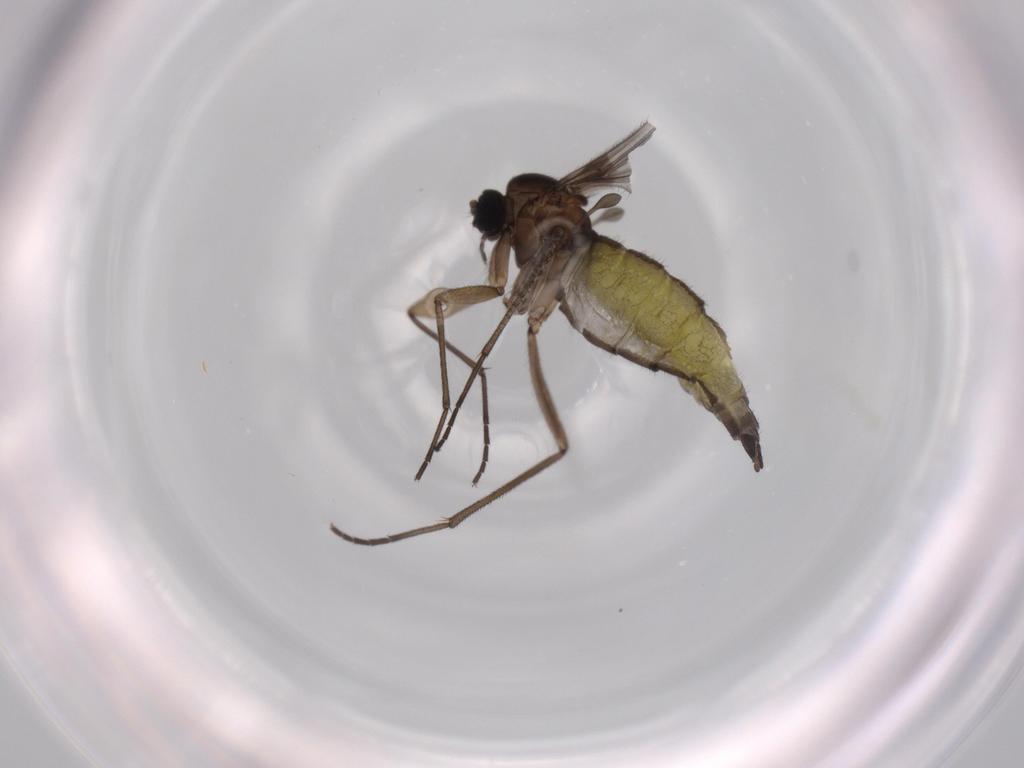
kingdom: Animalia
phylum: Arthropoda
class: Insecta
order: Diptera
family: Sciaridae
